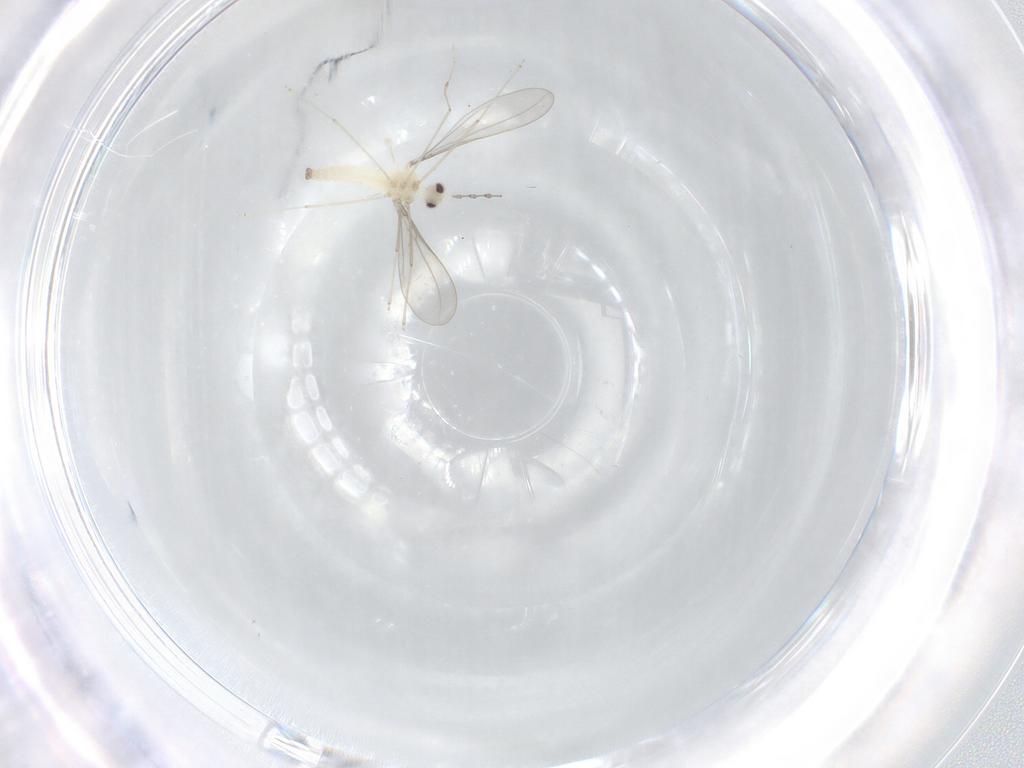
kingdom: Animalia
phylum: Arthropoda
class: Insecta
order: Diptera
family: Cecidomyiidae
